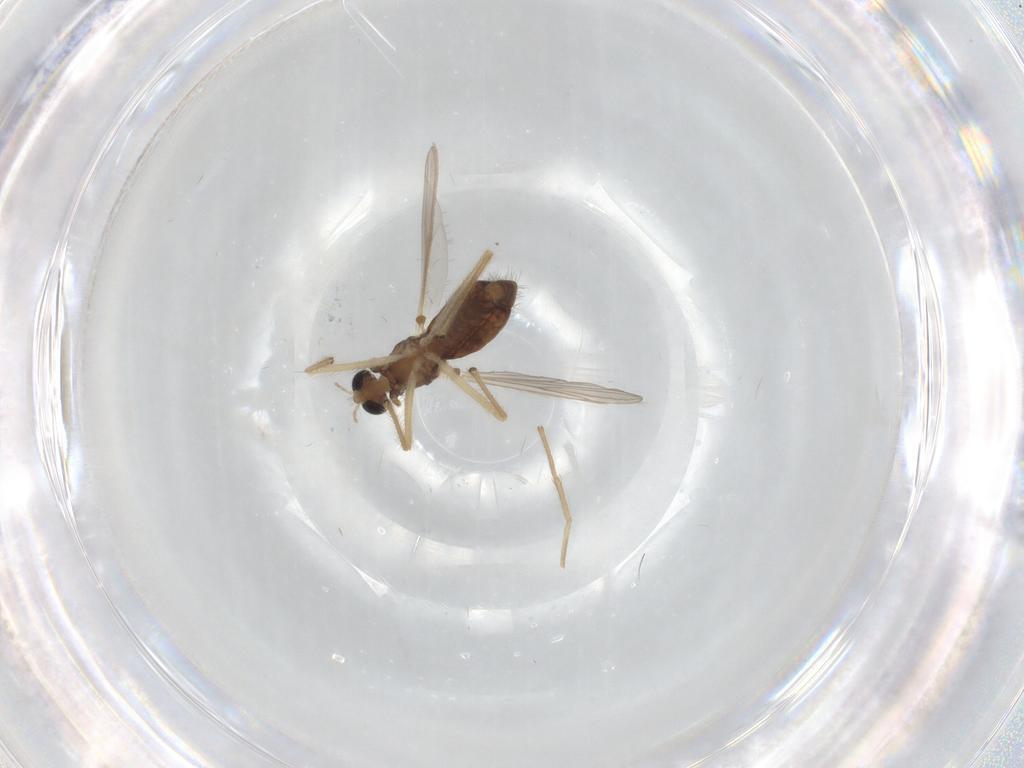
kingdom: Animalia
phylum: Arthropoda
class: Insecta
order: Diptera
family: Chironomidae
